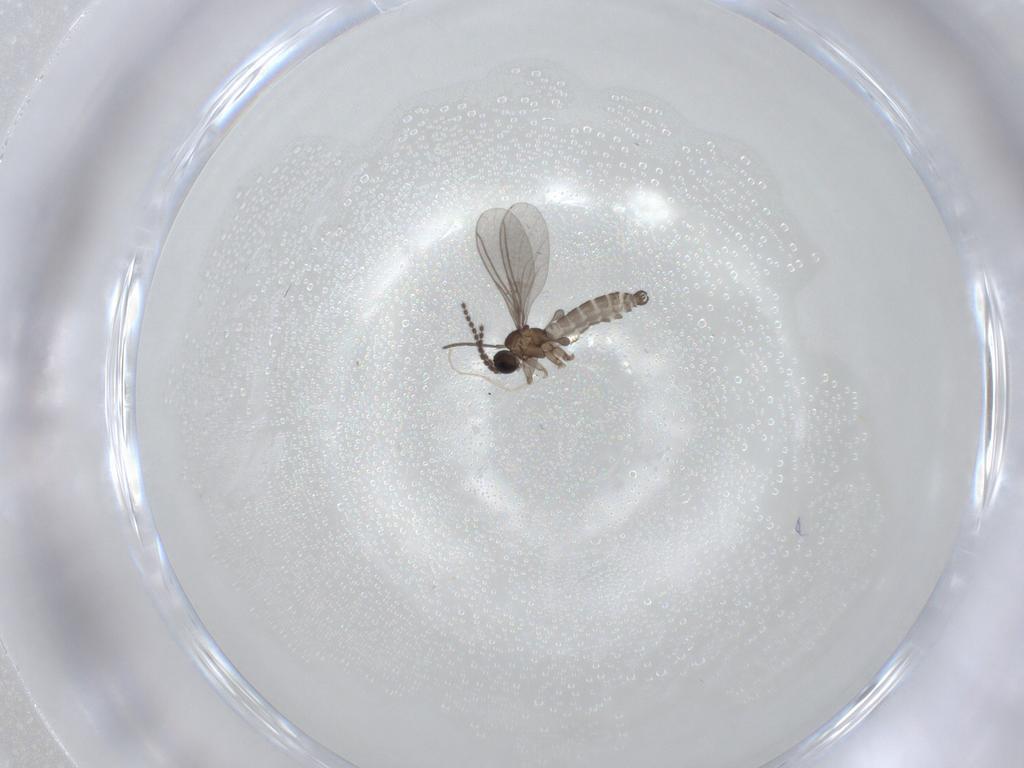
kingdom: Animalia
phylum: Arthropoda
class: Insecta
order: Diptera
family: Sciaridae
